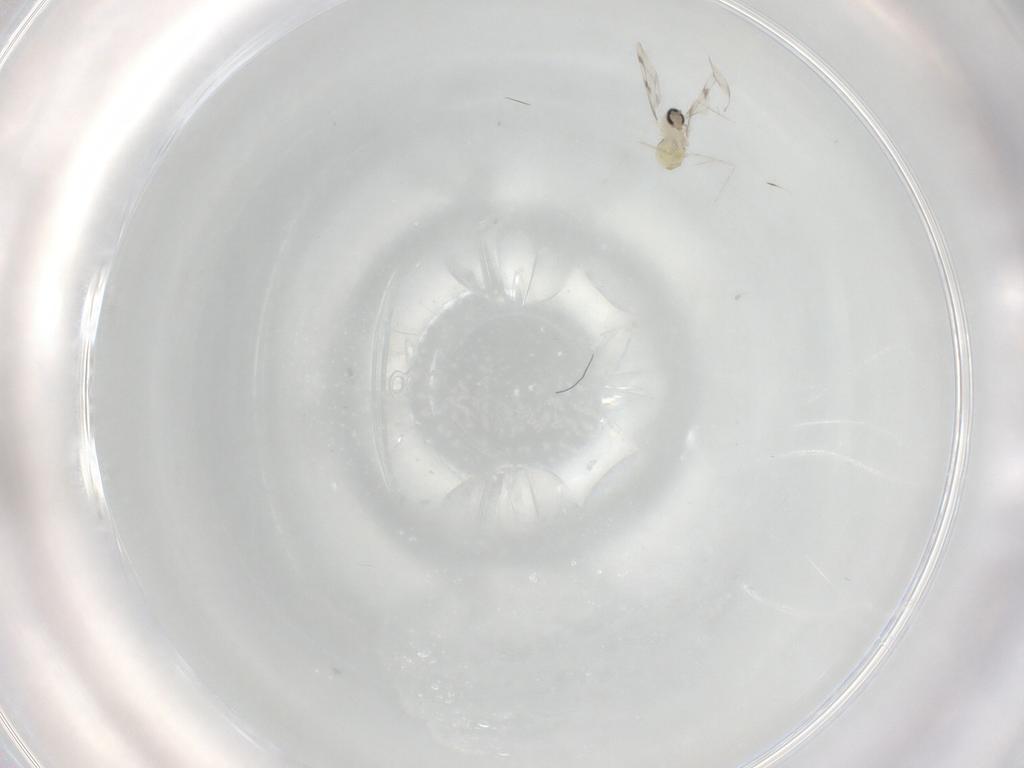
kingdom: Animalia
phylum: Arthropoda
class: Insecta
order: Diptera
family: Cecidomyiidae
